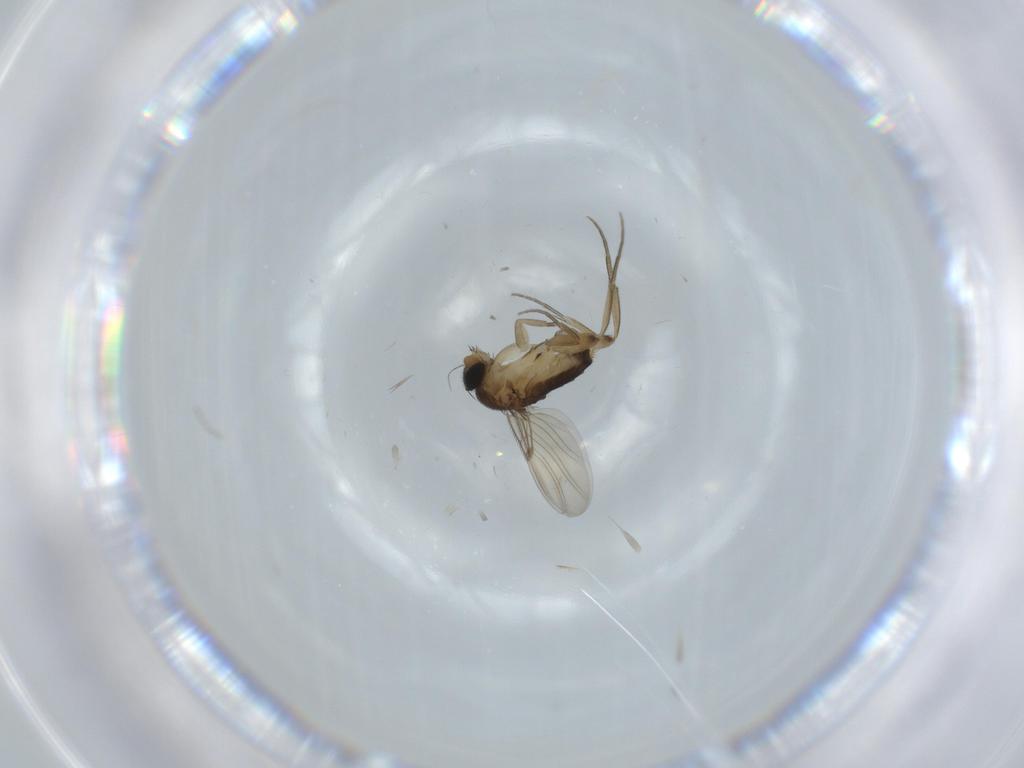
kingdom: Animalia
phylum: Arthropoda
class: Insecta
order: Diptera
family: Phoridae
